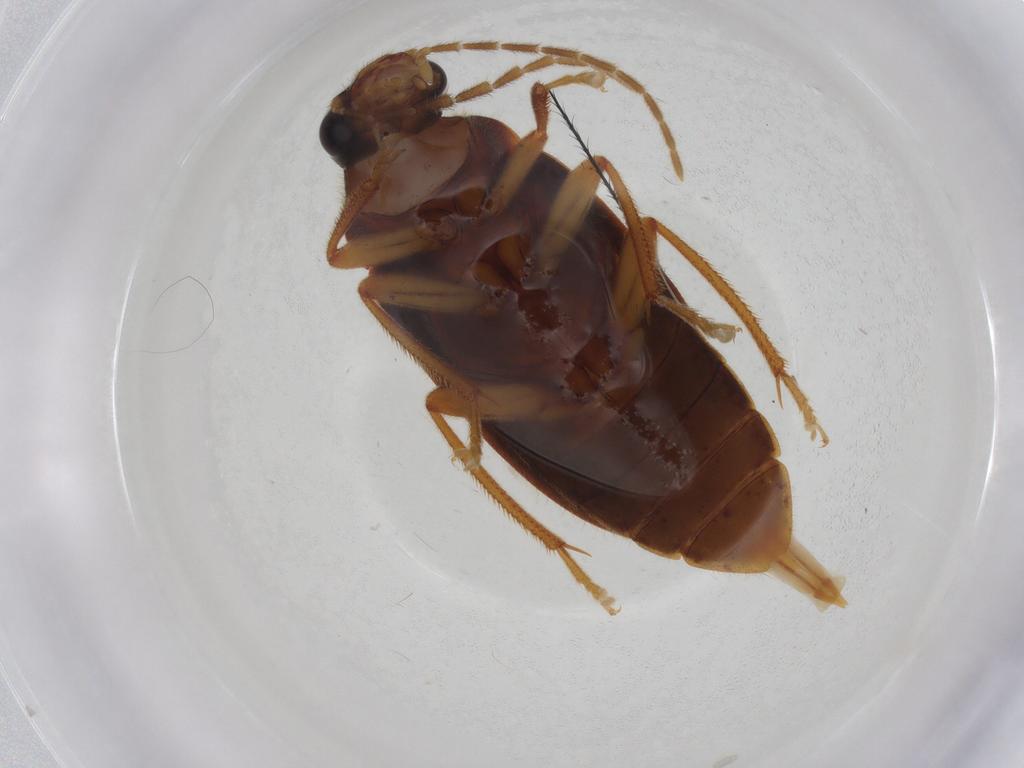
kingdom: Animalia
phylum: Arthropoda
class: Insecta
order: Coleoptera
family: Ptilodactylidae
